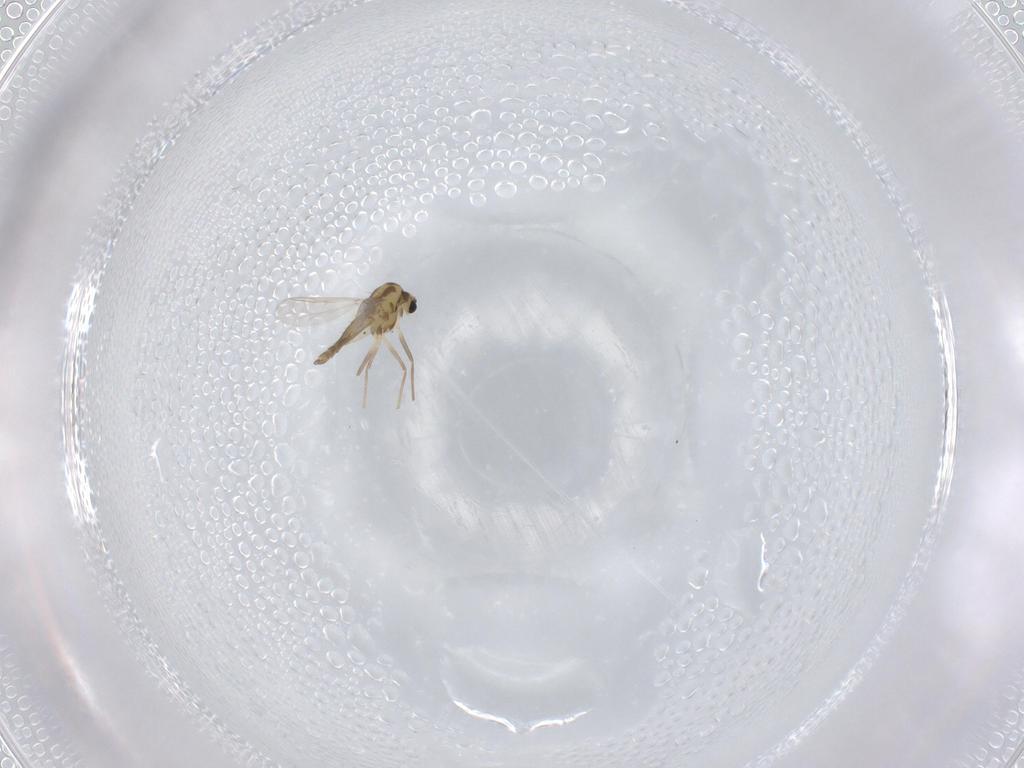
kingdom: Animalia
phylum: Arthropoda
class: Insecta
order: Diptera
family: Chironomidae
